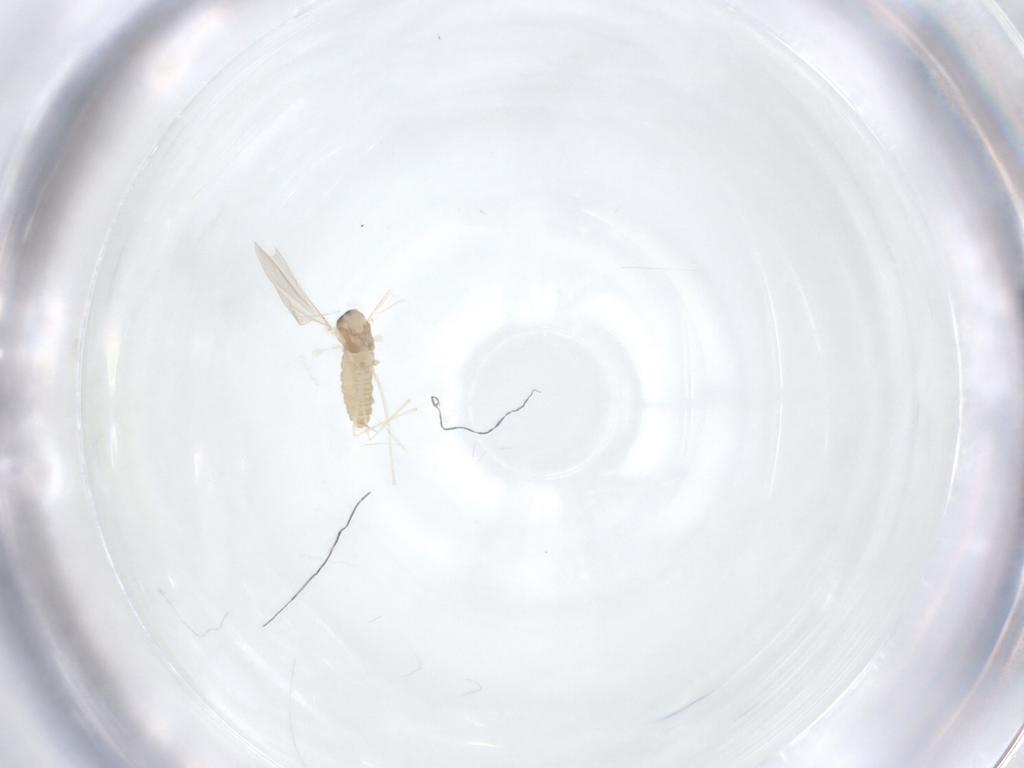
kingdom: Animalia
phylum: Arthropoda
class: Insecta
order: Diptera
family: Cecidomyiidae
